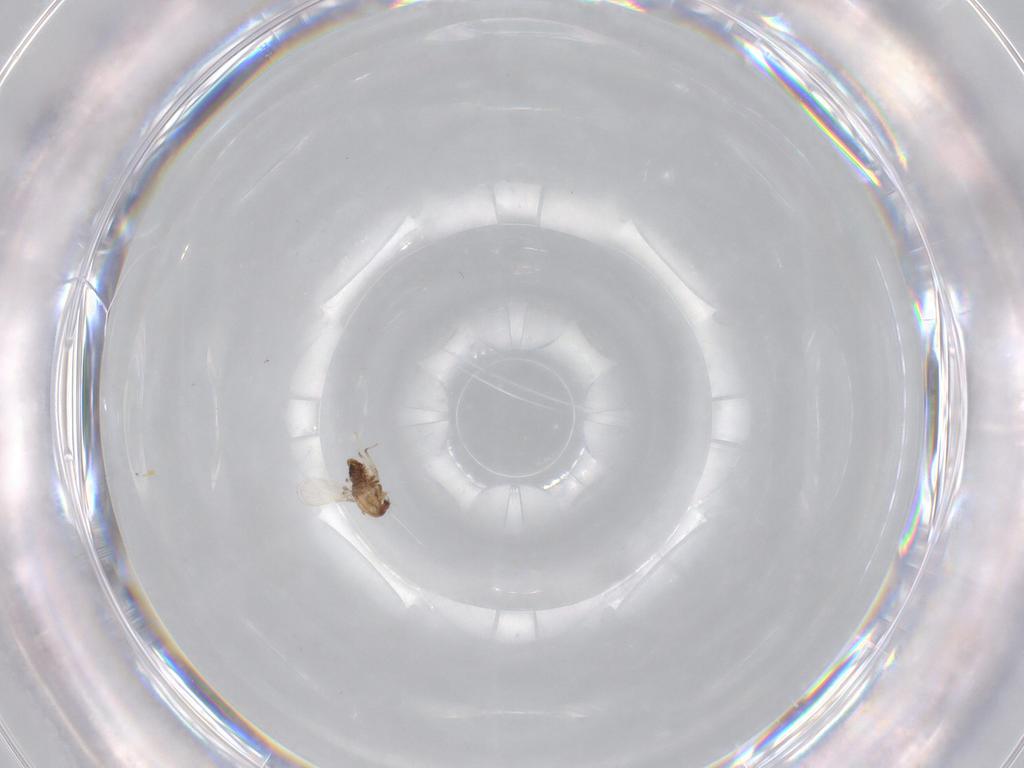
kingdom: Animalia
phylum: Arthropoda
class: Insecta
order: Diptera
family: Chironomidae
